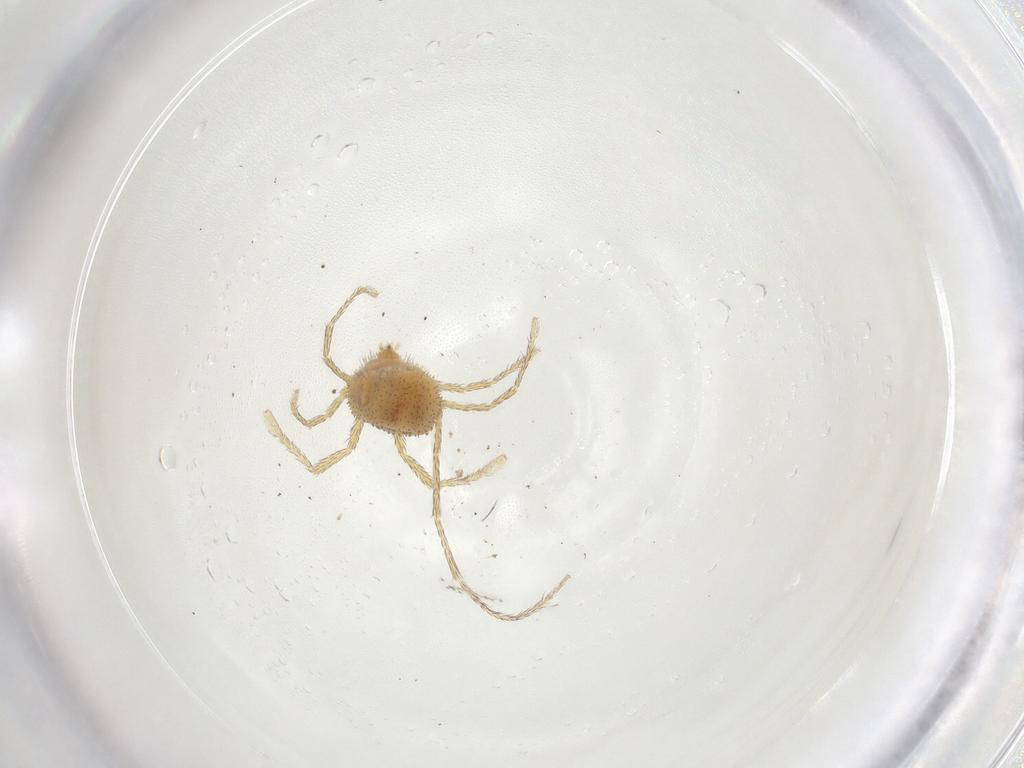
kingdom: Animalia
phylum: Arthropoda
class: Arachnida
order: Trombidiformes
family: Erythraeidae
